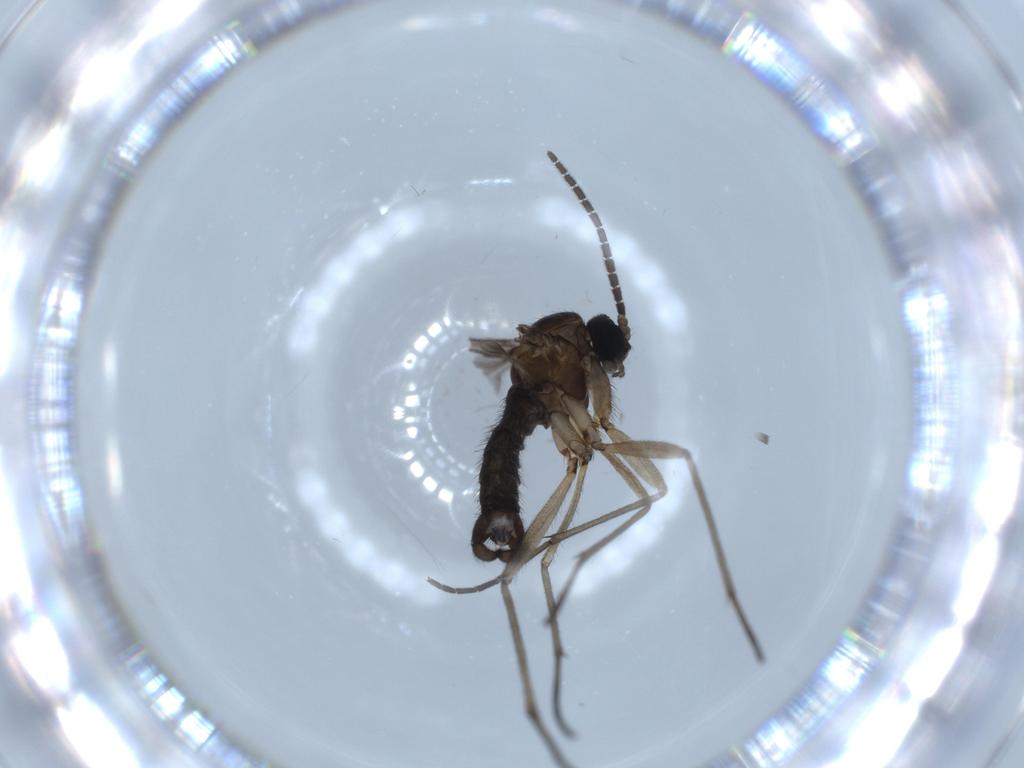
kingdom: Animalia
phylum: Arthropoda
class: Insecta
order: Diptera
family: Sciaridae
